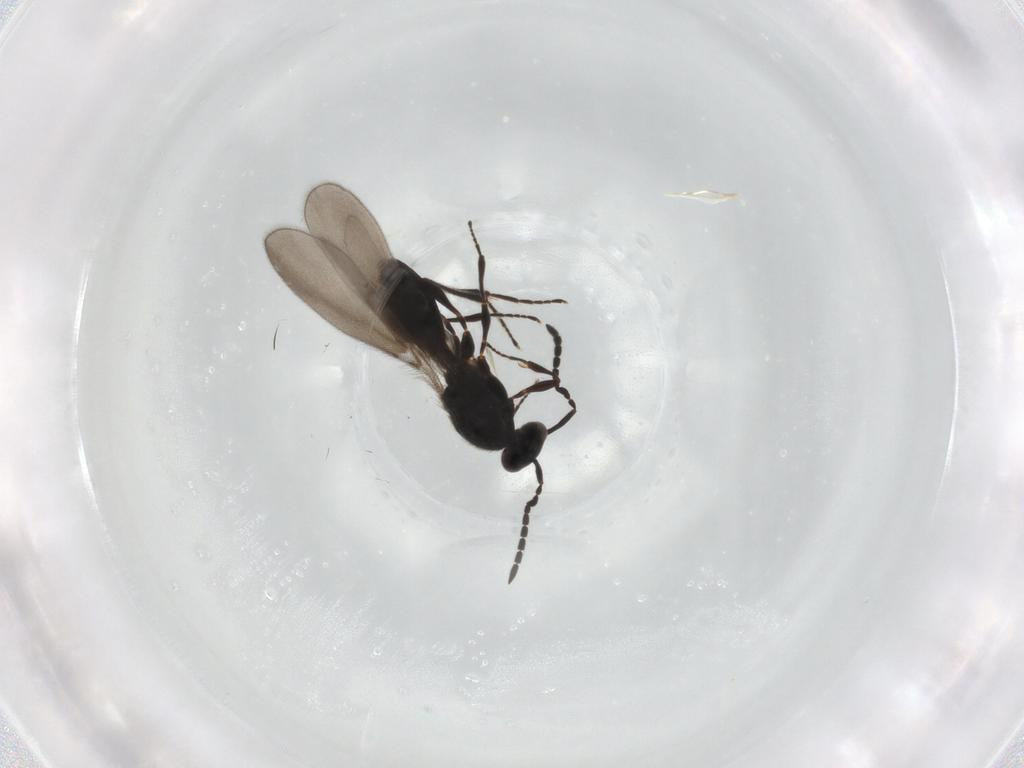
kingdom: Animalia
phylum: Arthropoda
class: Insecta
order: Hymenoptera
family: Platygastridae
